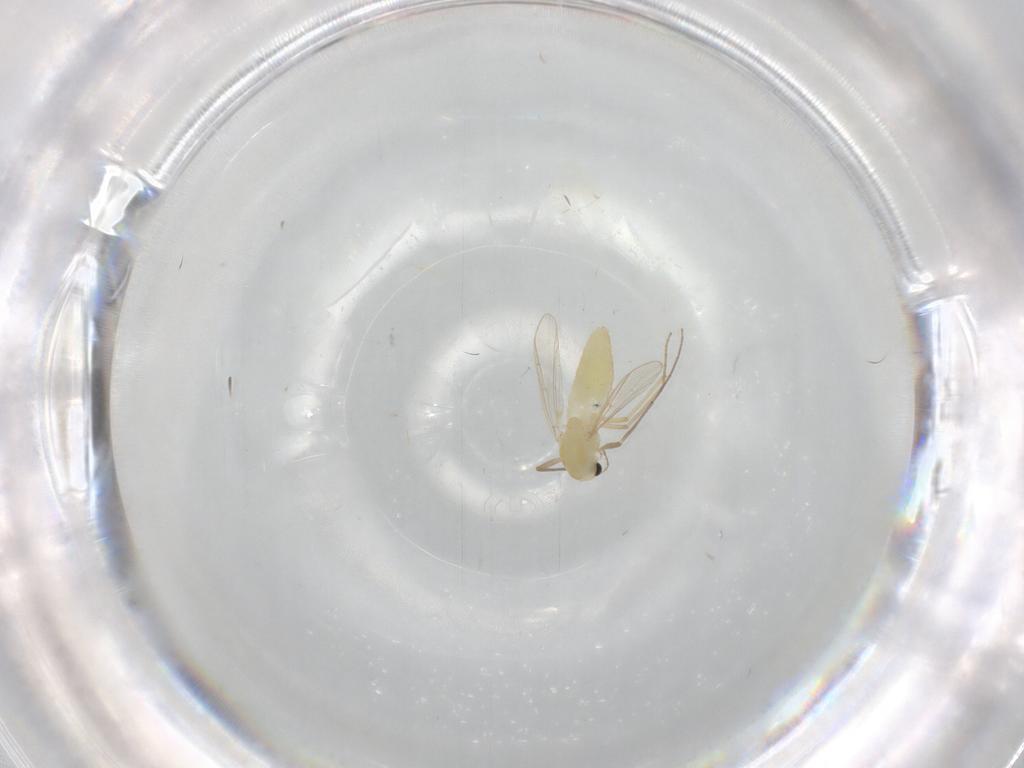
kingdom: Animalia
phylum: Arthropoda
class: Insecta
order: Diptera
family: Chironomidae
